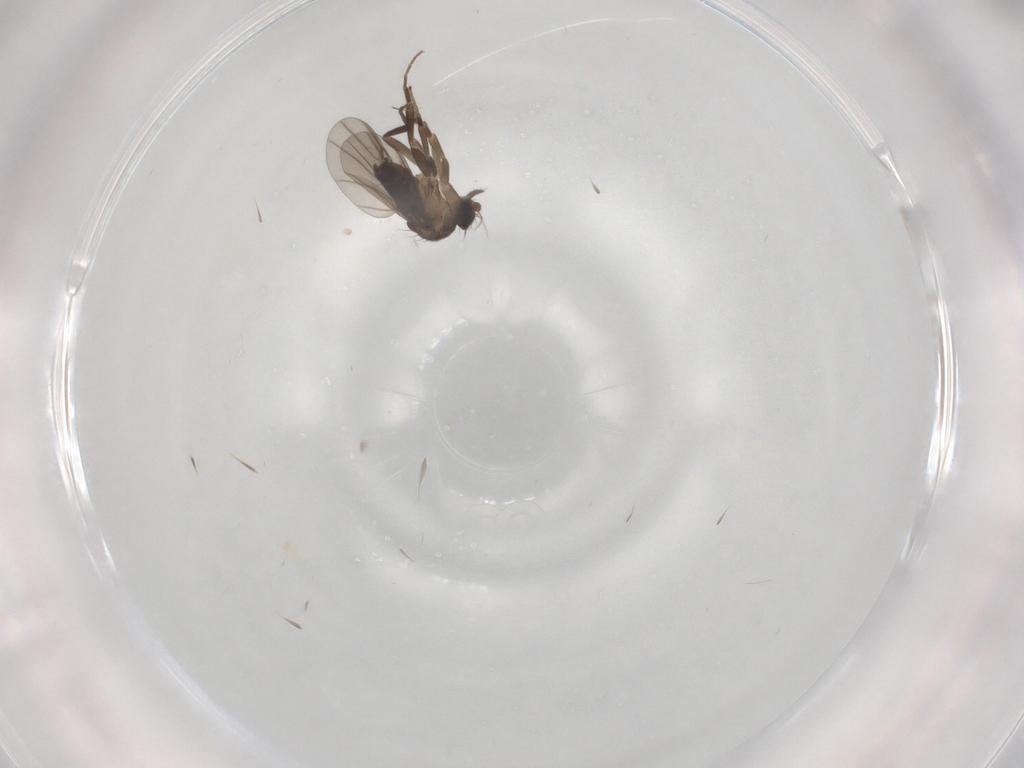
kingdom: Animalia
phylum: Arthropoda
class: Insecta
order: Diptera
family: Phoridae
